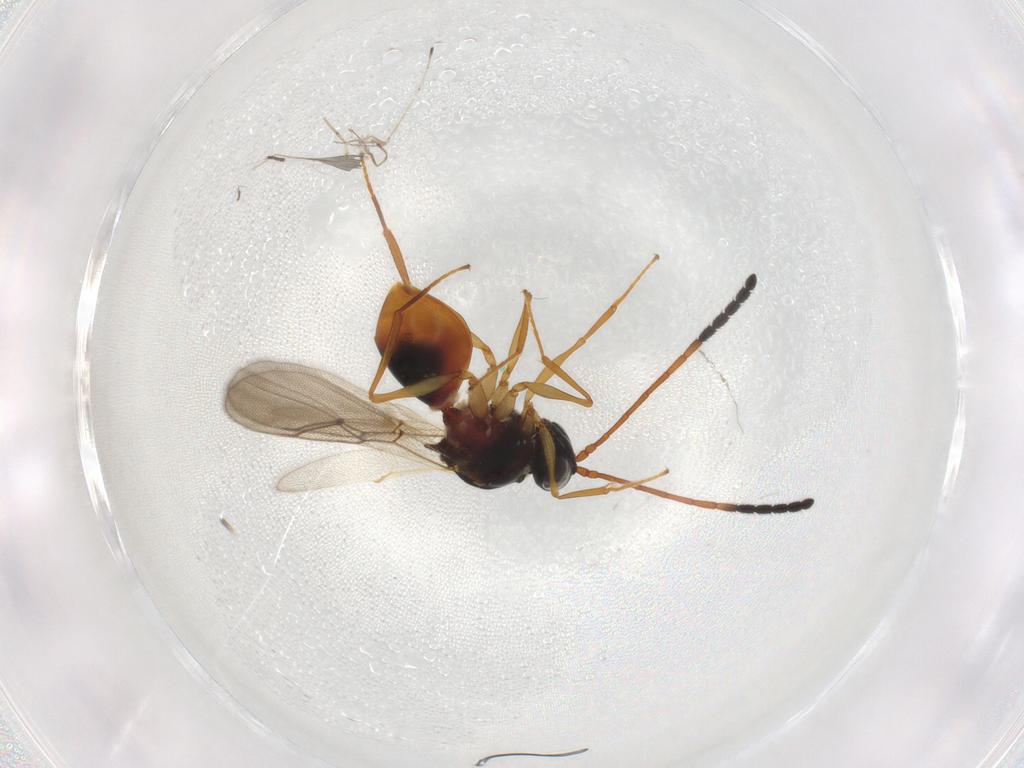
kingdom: Animalia
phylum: Arthropoda
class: Insecta
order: Hymenoptera
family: Figitidae
